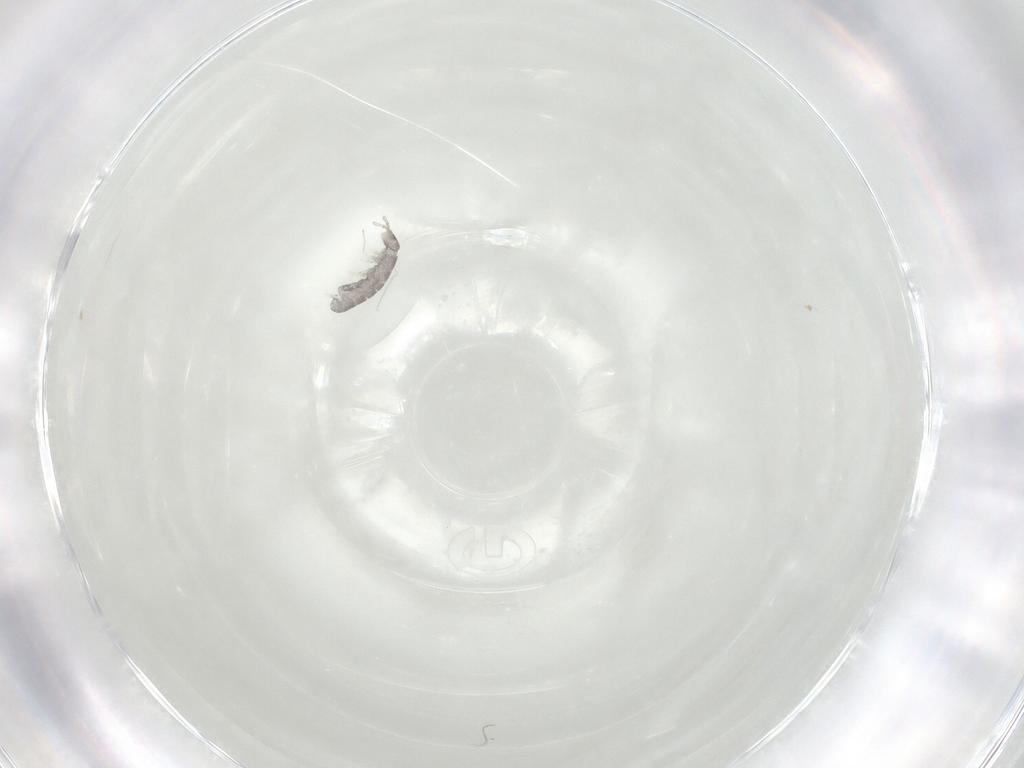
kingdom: Animalia
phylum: Arthropoda
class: Collembola
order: Entomobryomorpha
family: Isotomidae
